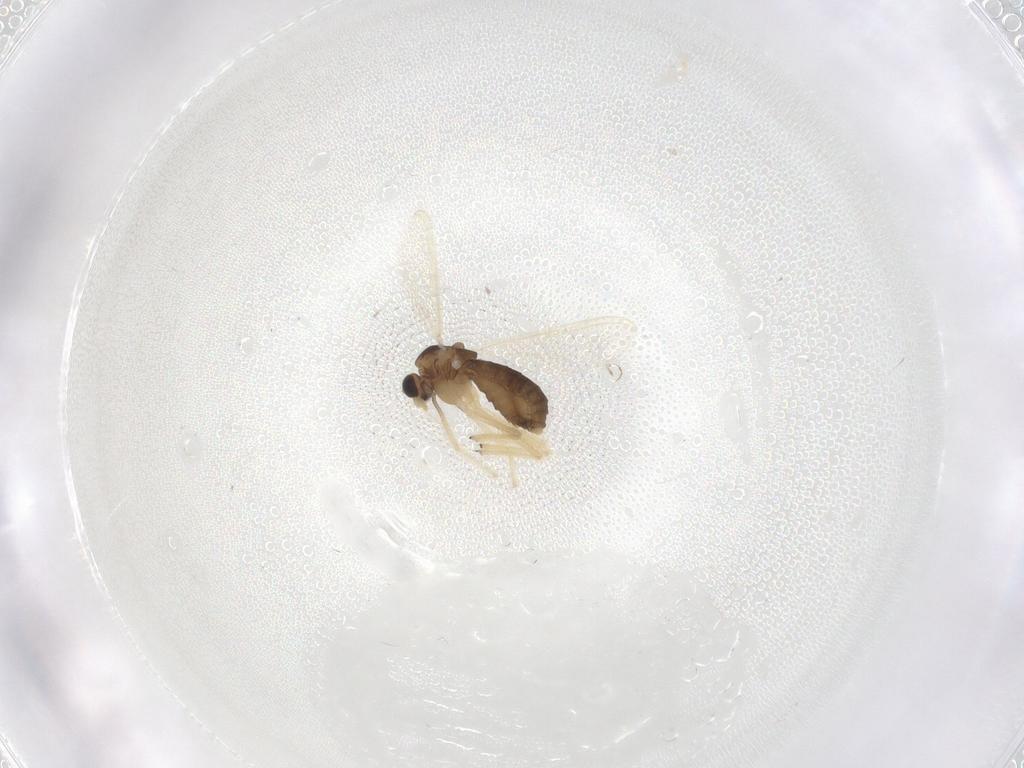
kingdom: Animalia
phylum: Arthropoda
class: Insecta
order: Diptera
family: Chironomidae
